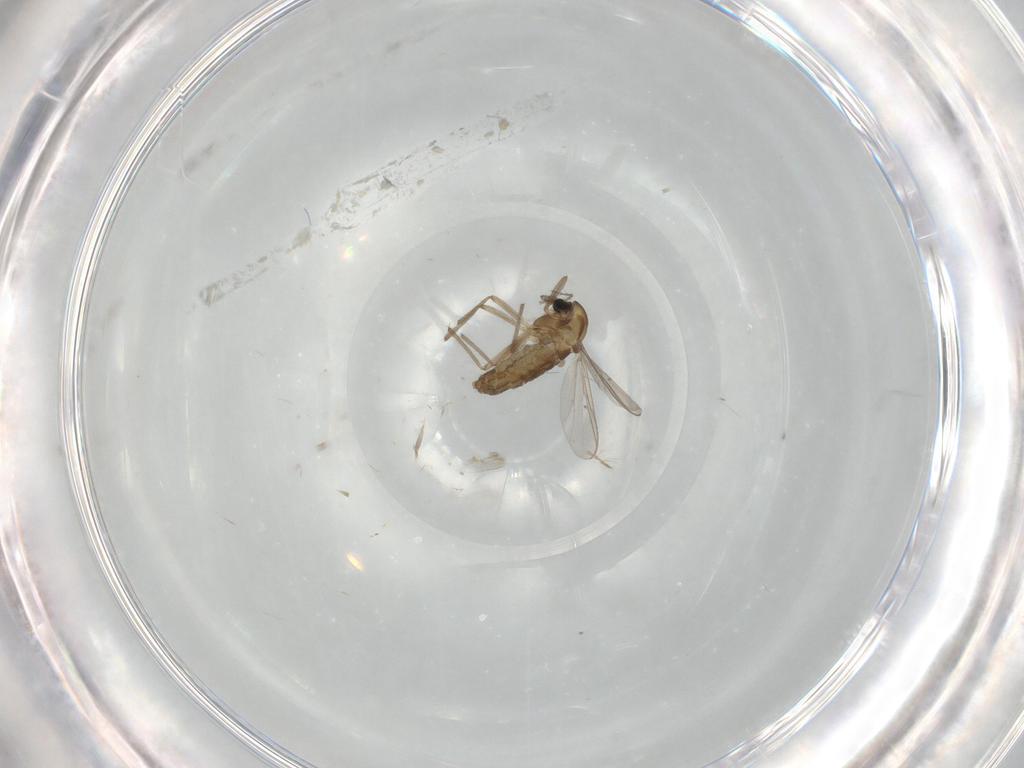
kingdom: Animalia
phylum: Arthropoda
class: Insecta
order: Diptera
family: Chironomidae
